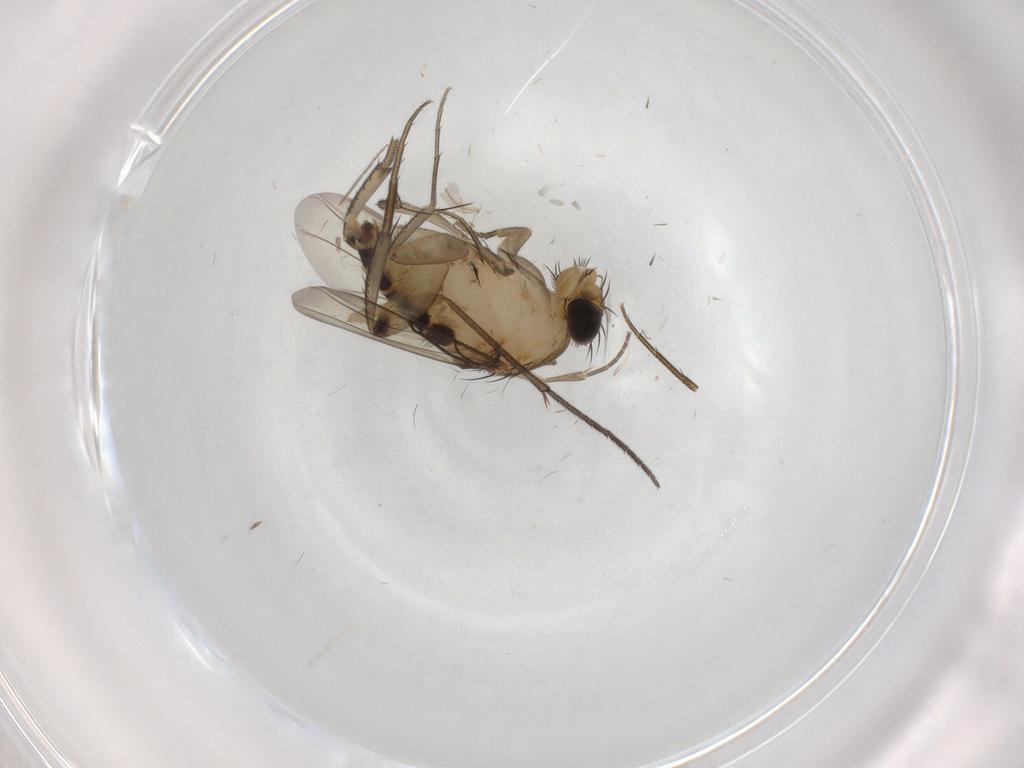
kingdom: Animalia
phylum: Arthropoda
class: Insecta
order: Diptera
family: Phoridae
